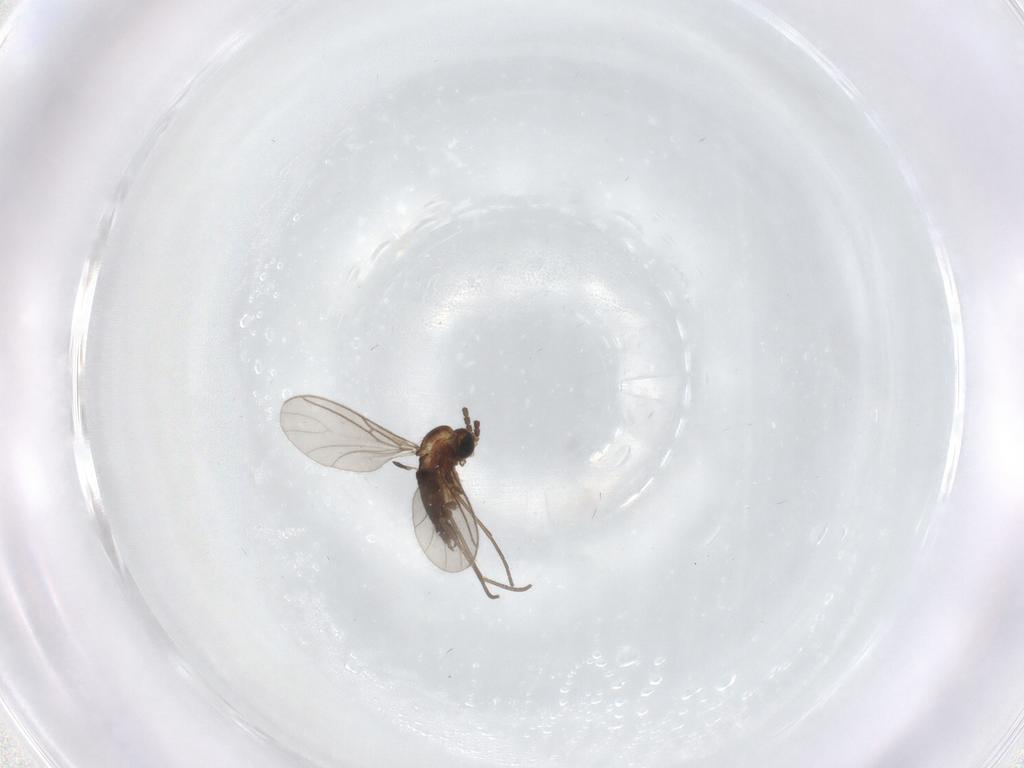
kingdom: Animalia
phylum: Arthropoda
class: Insecta
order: Diptera
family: Sciaridae
